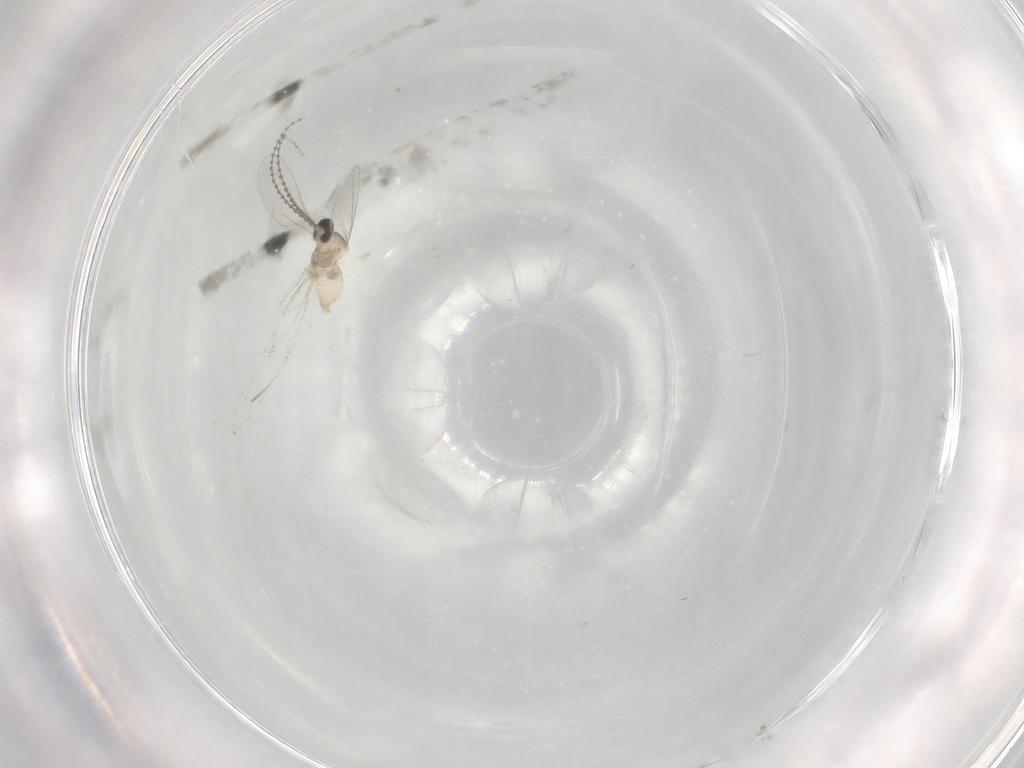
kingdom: Animalia
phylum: Arthropoda
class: Insecta
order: Diptera
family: Cecidomyiidae
